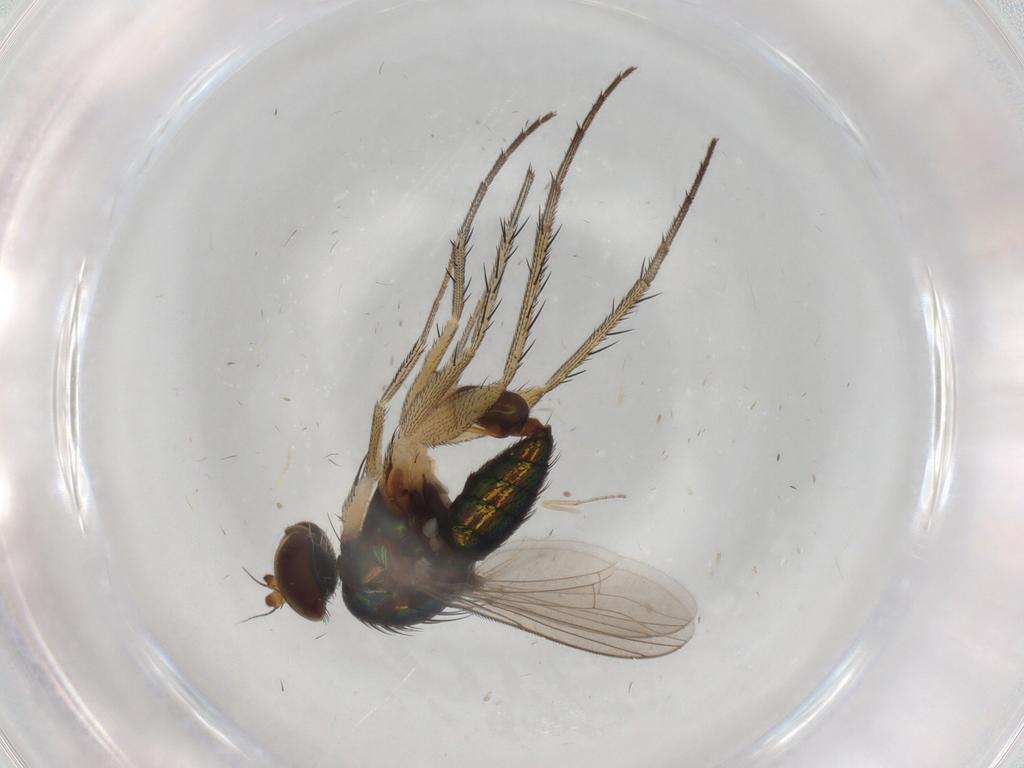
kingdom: Animalia
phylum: Arthropoda
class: Insecta
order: Diptera
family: Dolichopodidae
